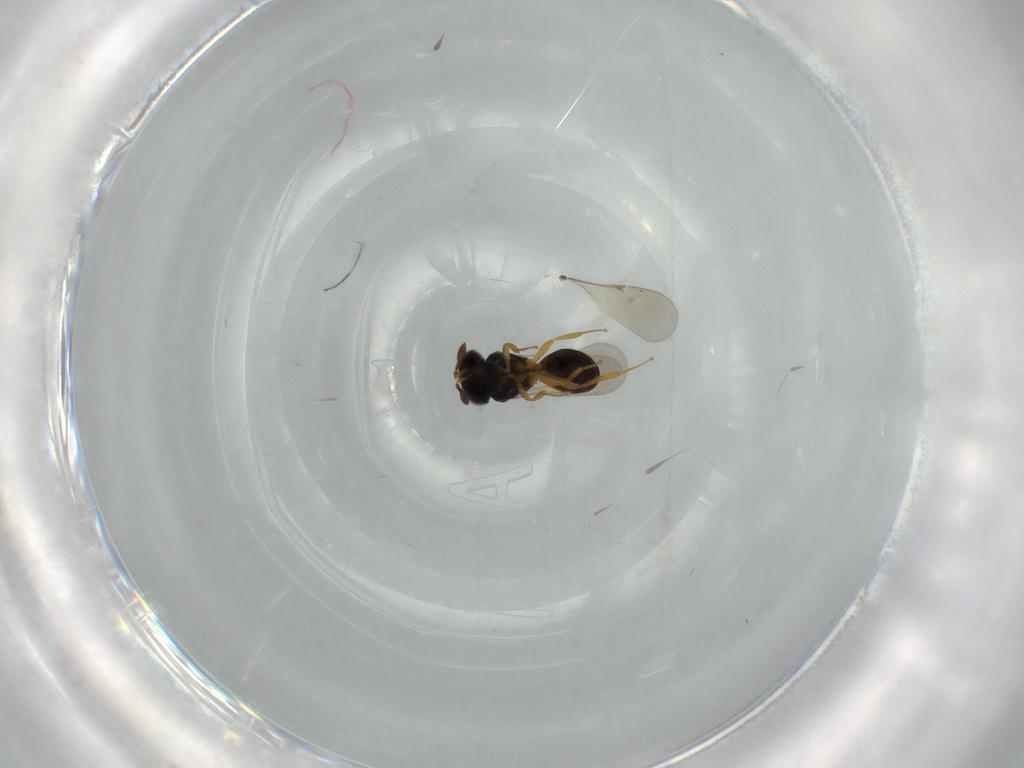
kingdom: Animalia
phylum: Arthropoda
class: Insecta
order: Hymenoptera
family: Scelionidae
